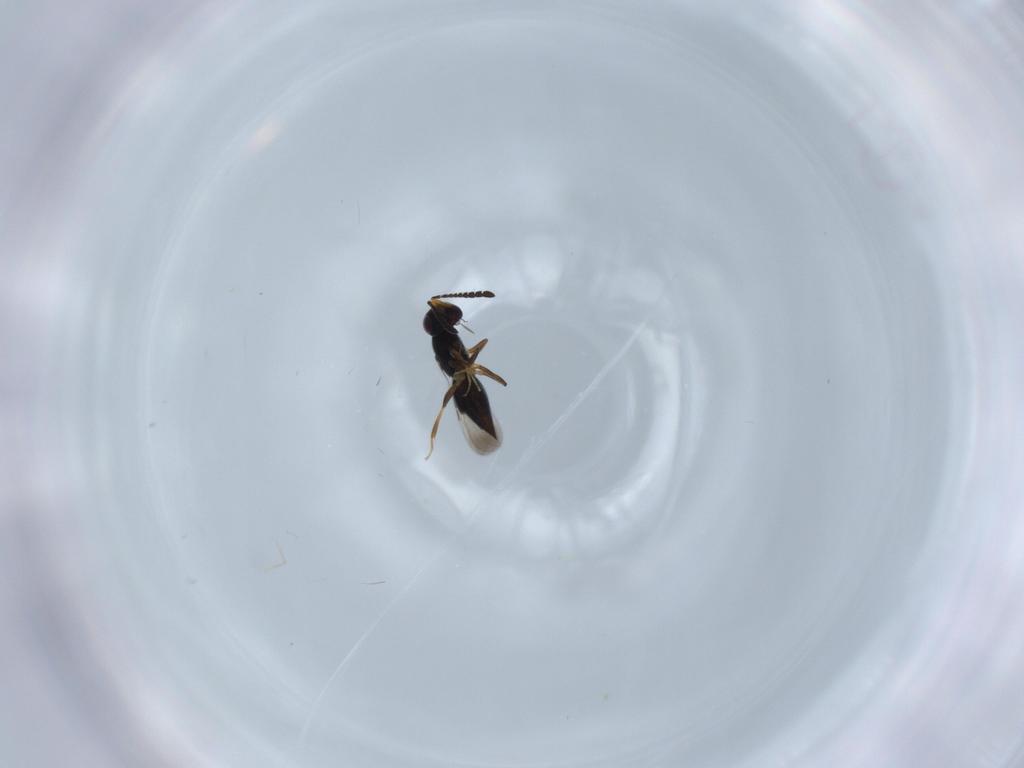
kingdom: Animalia
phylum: Arthropoda
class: Insecta
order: Hymenoptera
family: Ceraphronidae
